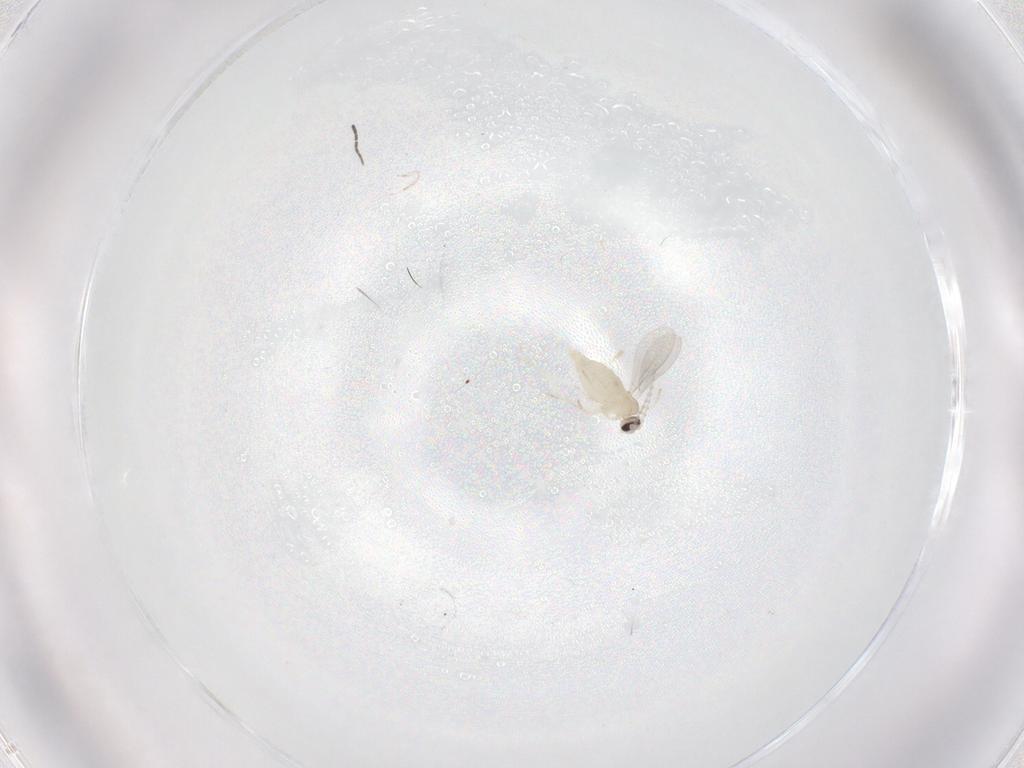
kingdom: Animalia
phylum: Arthropoda
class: Insecta
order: Diptera
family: Cecidomyiidae
